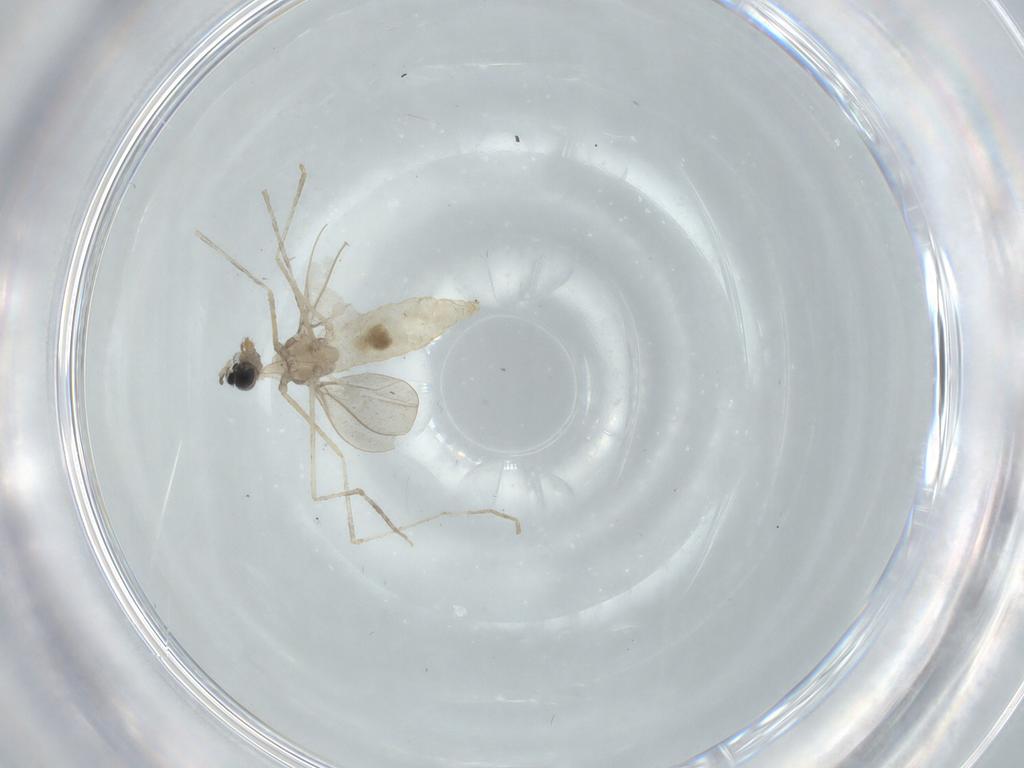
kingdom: Animalia
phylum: Arthropoda
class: Insecta
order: Diptera
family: Cecidomyiidae
